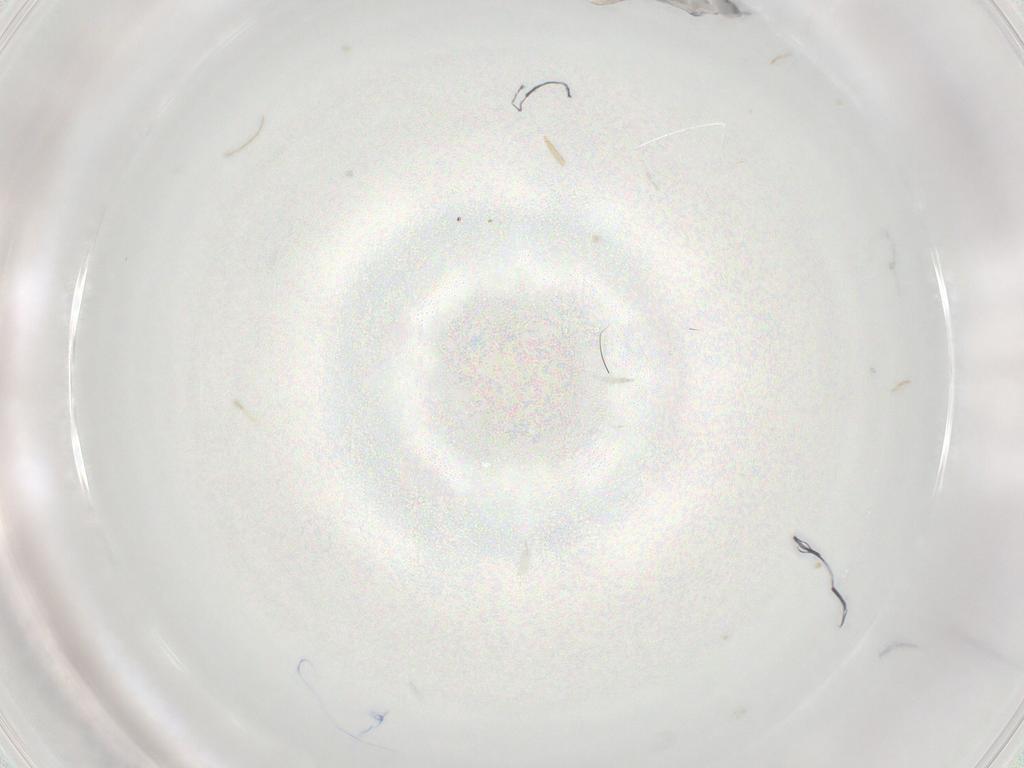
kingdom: Animalia
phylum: Arthropoda
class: Collembola
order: Entomobryomorpha
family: Entomobryidae
